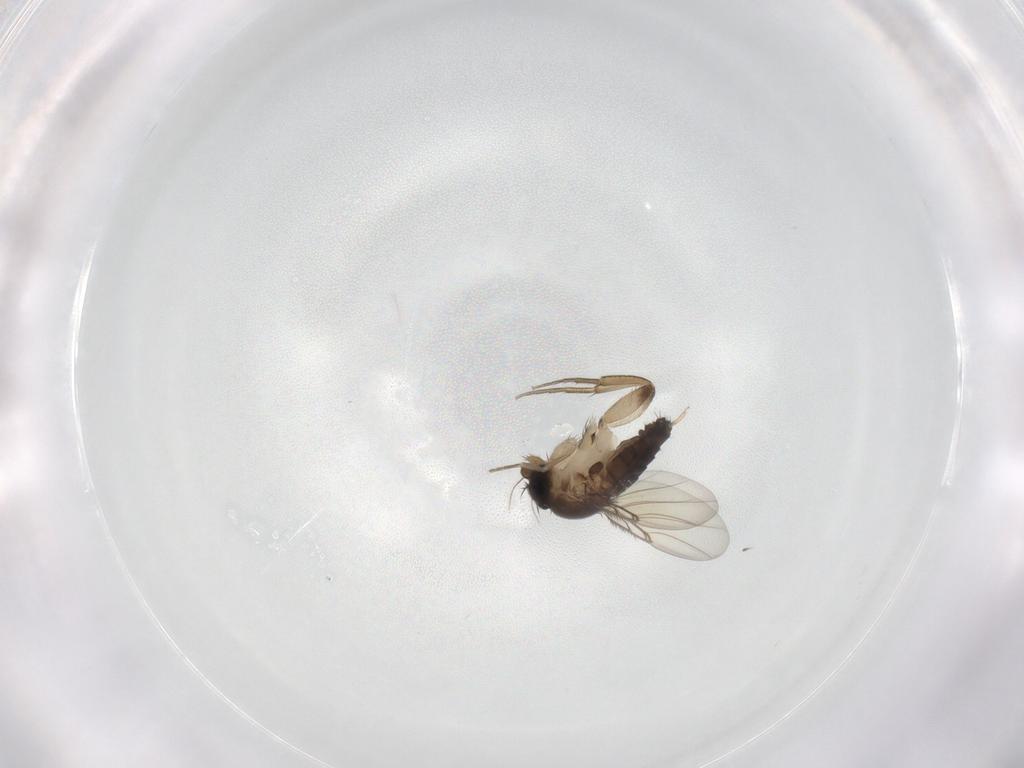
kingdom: Animalia
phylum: Arthropoda
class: Insecta
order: Diptera
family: Phoridae
